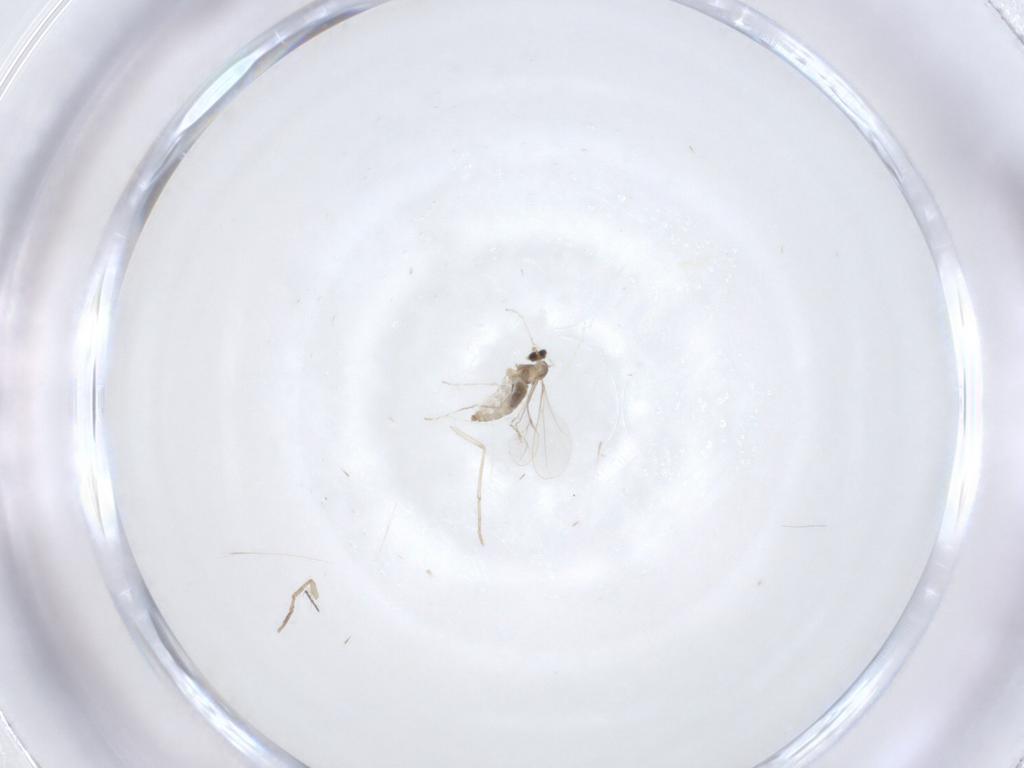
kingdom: Animalia
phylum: Arthropoda
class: Insecta
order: Diptera
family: Chironomidae
